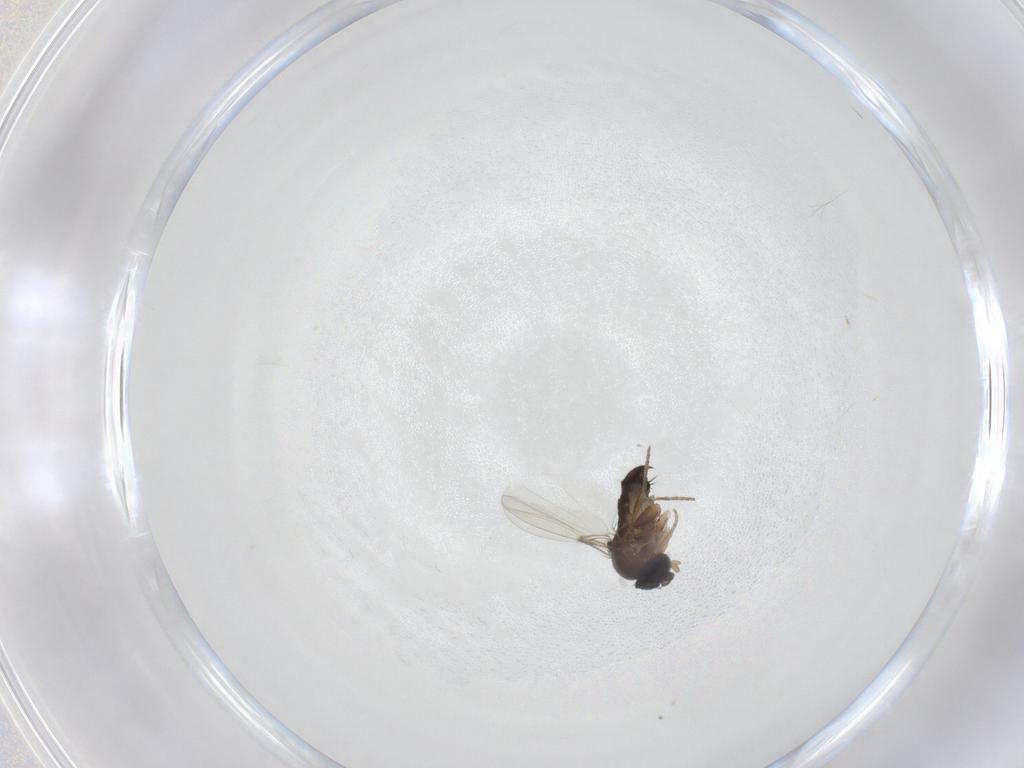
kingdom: Animalia
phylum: Arthropoda
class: Insecta
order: Diptera
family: Phoridae
